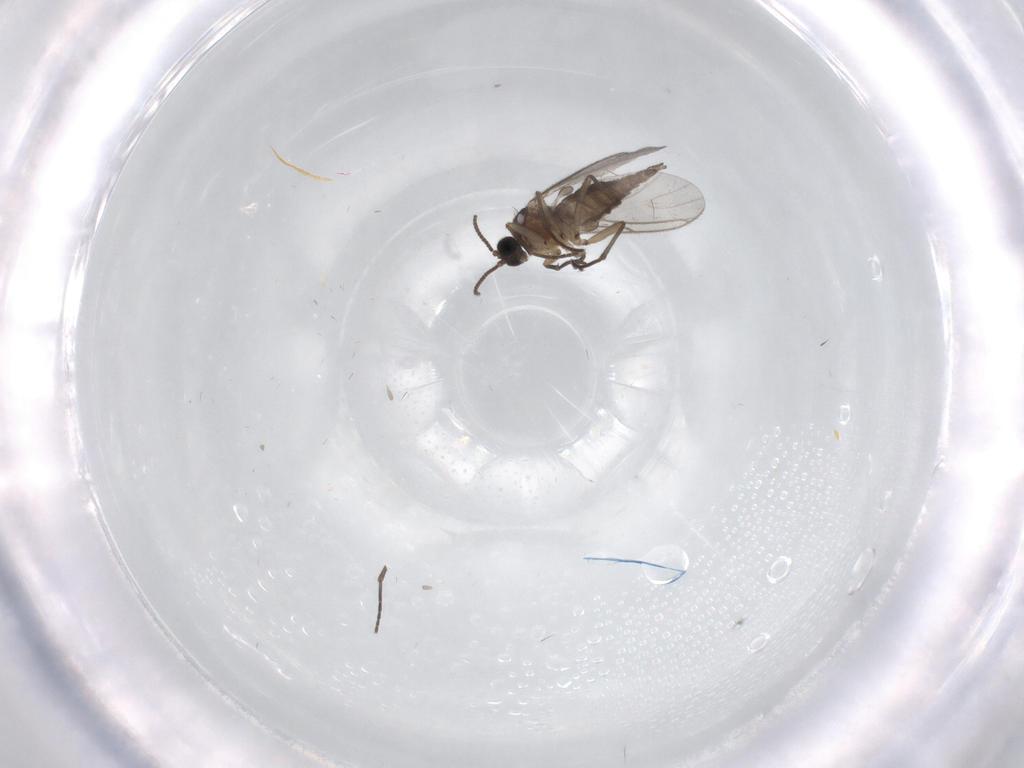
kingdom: Animalia
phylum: Arthropoda
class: Insecta
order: Diptera
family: Sciaridae
